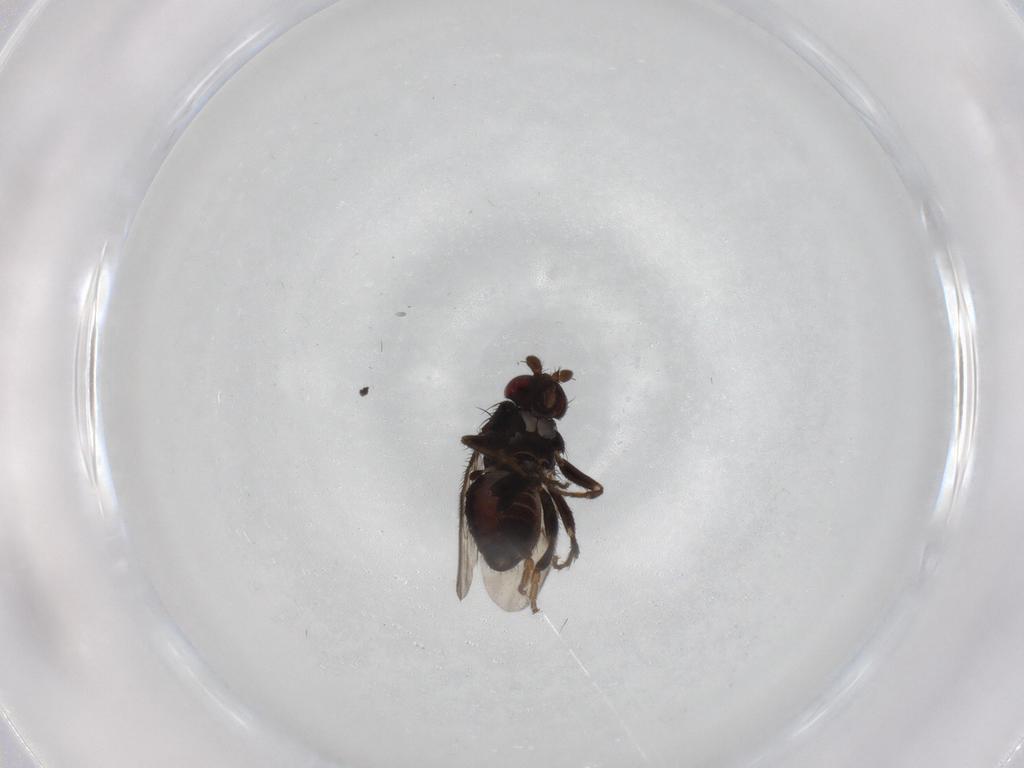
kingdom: Animalia
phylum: Arthropoda
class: Insecta
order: Diptera
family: Sphaeroceridae
